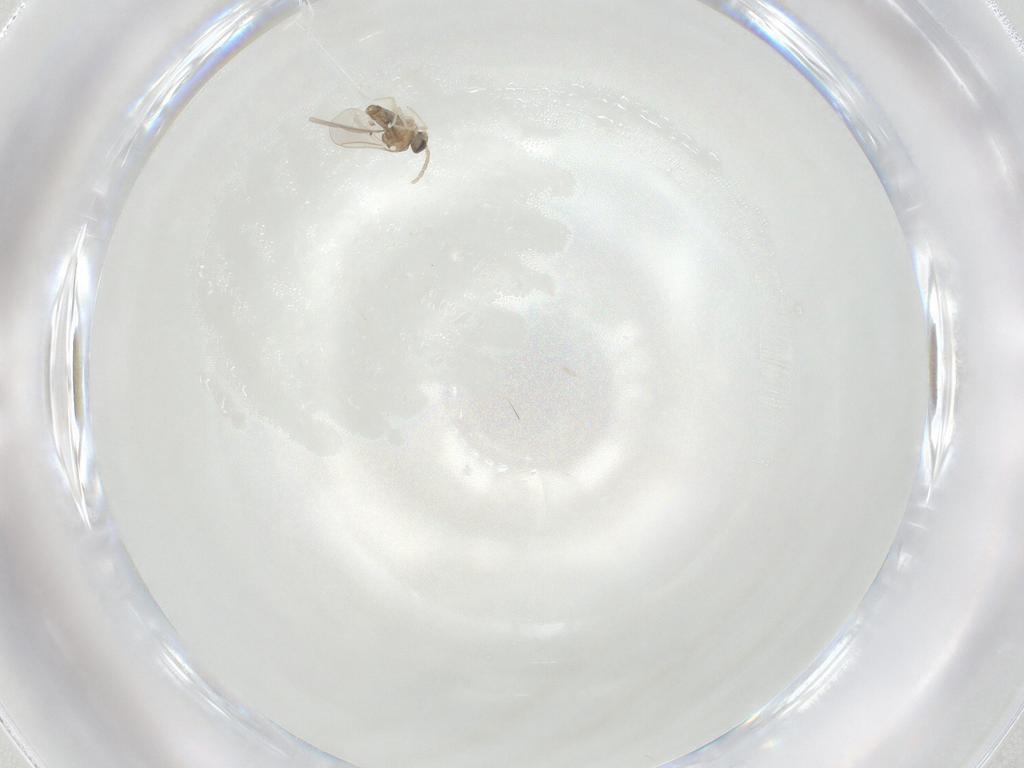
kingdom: Animalia
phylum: Arthropoda
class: Insecta
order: Diptera
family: Cecidomyiidae
